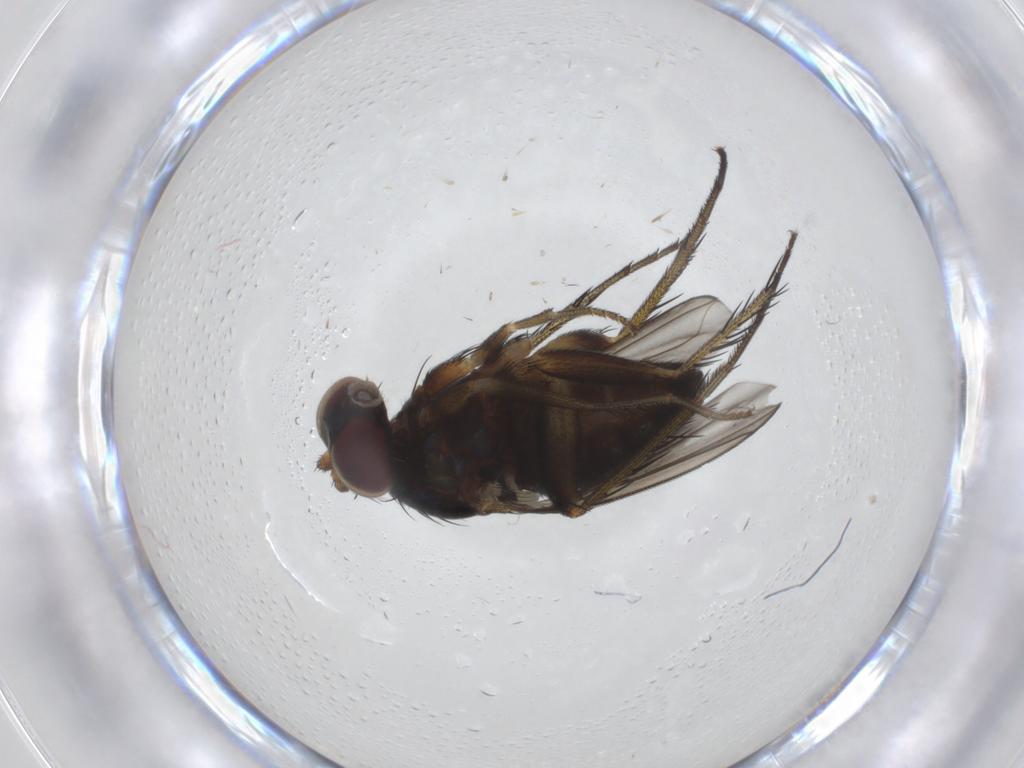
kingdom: Animalia
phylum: Arthropoda
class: Insecta
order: Diptera
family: Dolichopodidae
